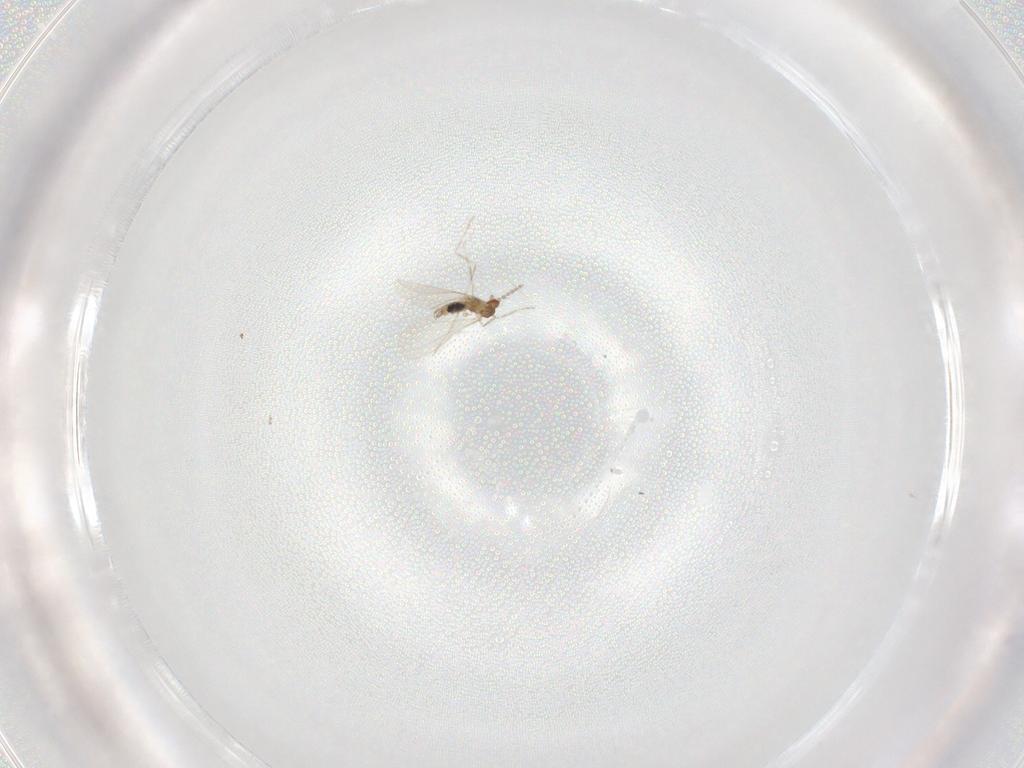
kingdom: Animalia
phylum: Arthropoda
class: Insecta
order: Diptera
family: Cecidomyiidae
